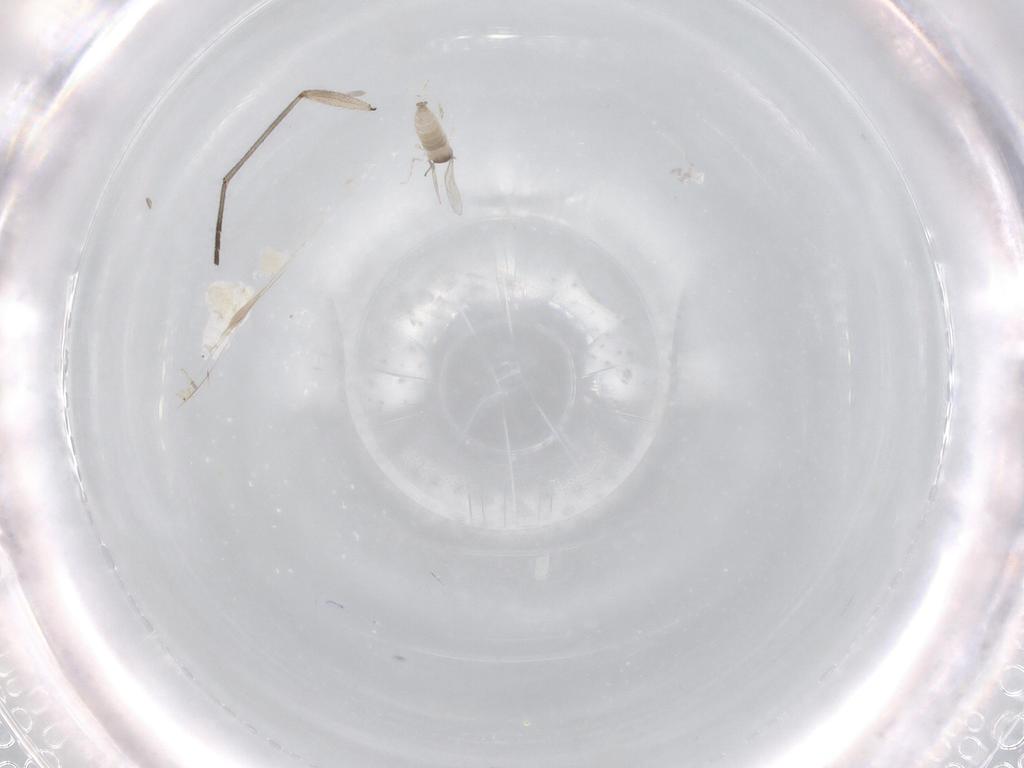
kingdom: Animalia
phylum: Arthropoda
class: Insecta
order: Diptera
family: Sciaridae
